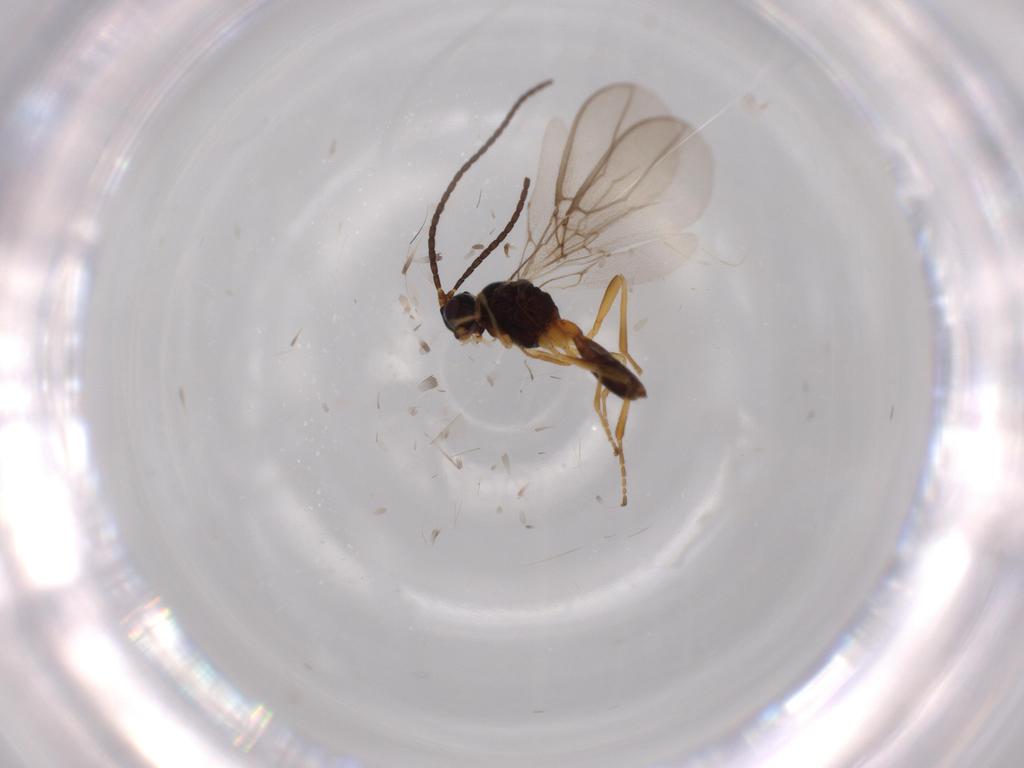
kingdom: Animalia
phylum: Arthropoda
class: Insecta
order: Hymenoptera
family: Braconidae
